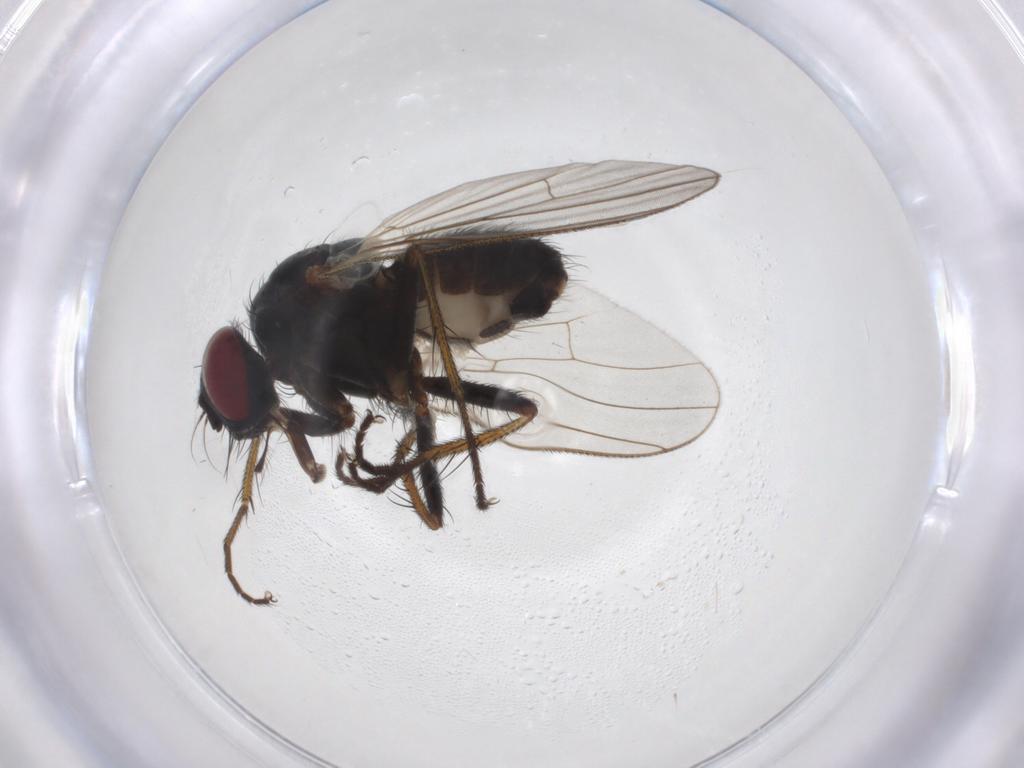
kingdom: Animalia
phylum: Arthropoda
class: Insecta
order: Diptera
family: Muscidae
